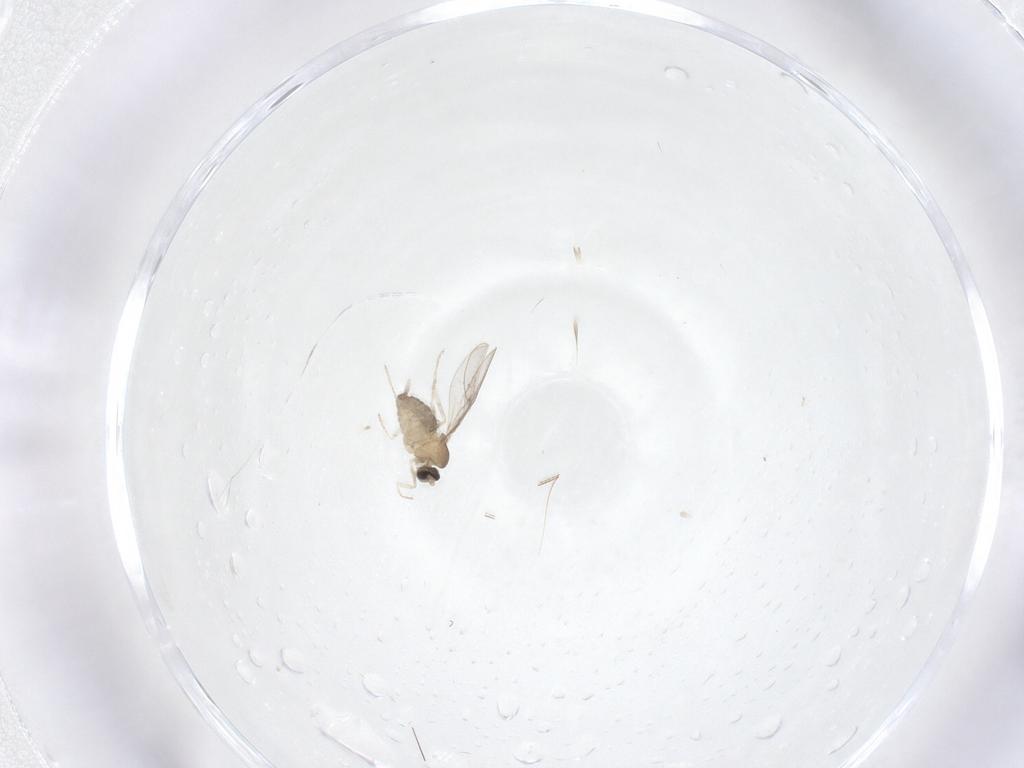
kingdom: Animalia
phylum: Arthropoda
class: Insecta
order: Diptera
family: Cecidomyiidae
